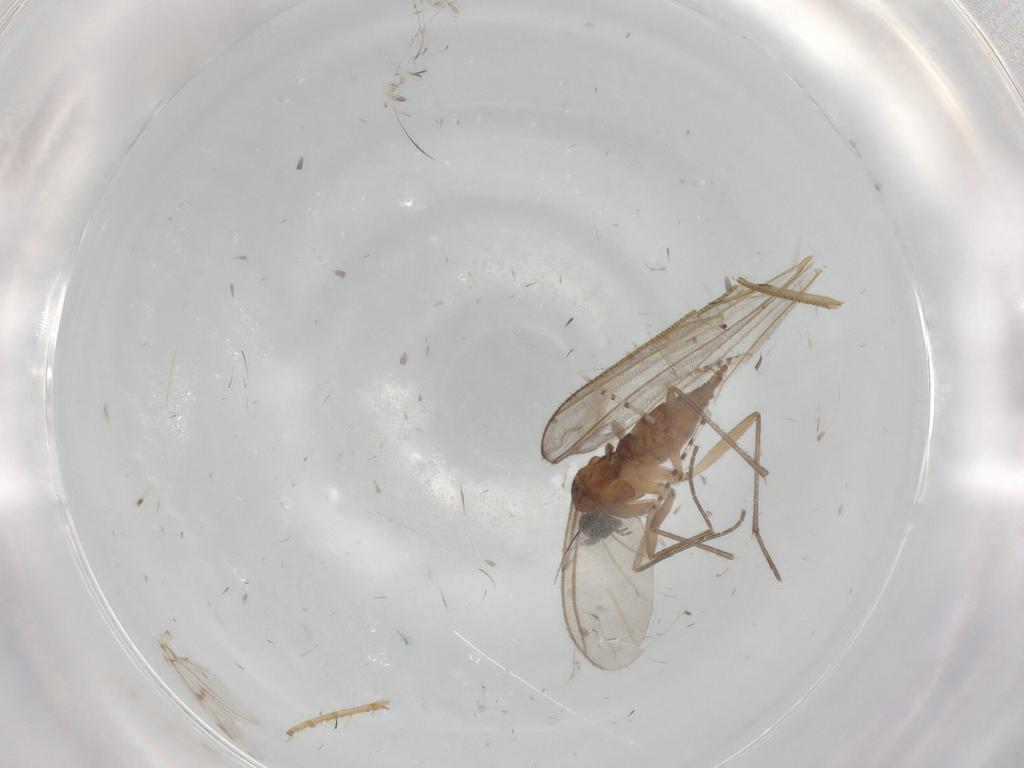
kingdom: Animalia
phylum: Arthropoda
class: Insecta
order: Diptera
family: Sciaridae
